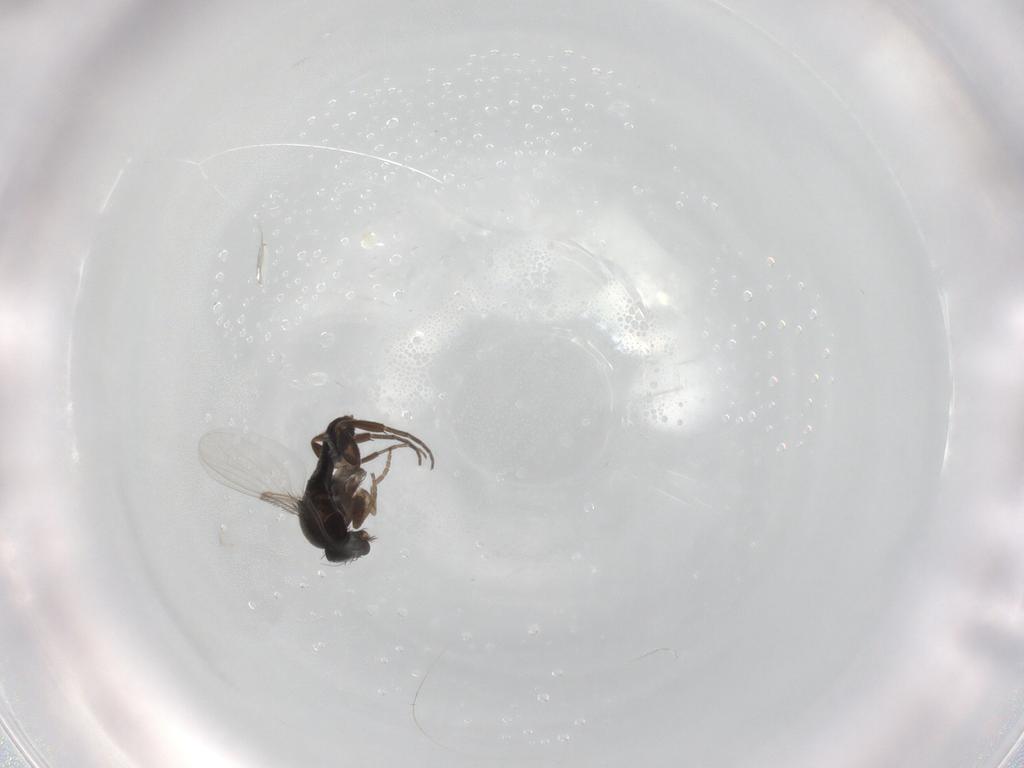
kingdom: Animalia
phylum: Arthropoda
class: Insecta
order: Diptera
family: Phoridae
